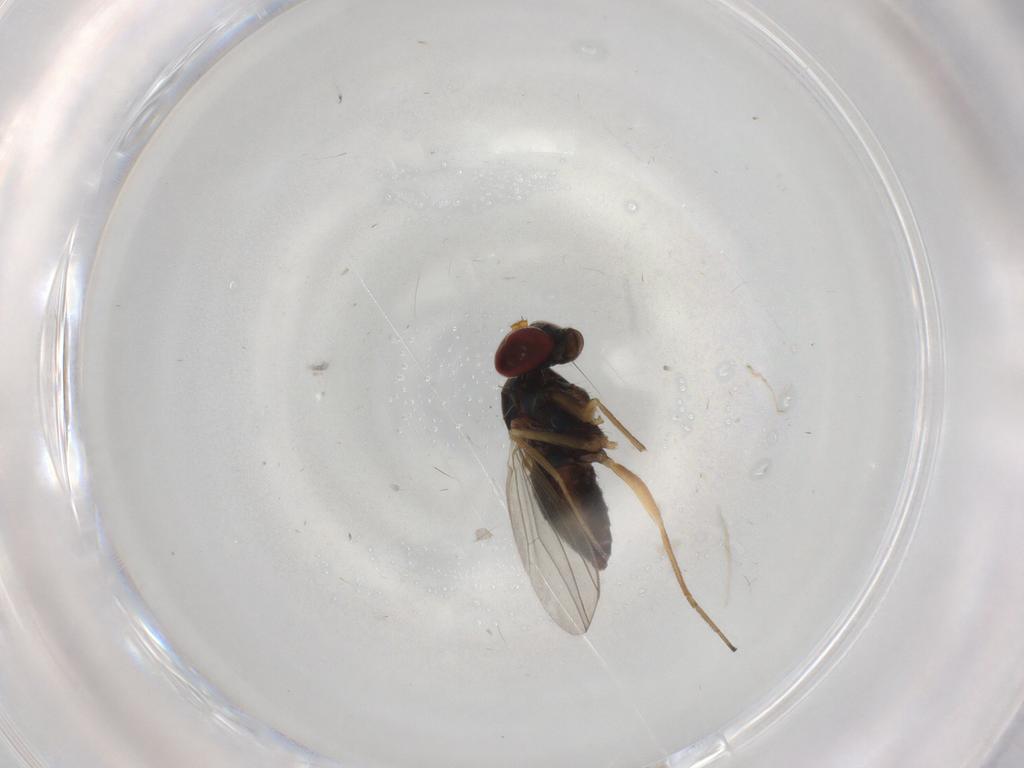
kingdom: Animalia
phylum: Arthropoda
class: Insecta
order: Diptera
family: Dolichopodidae
